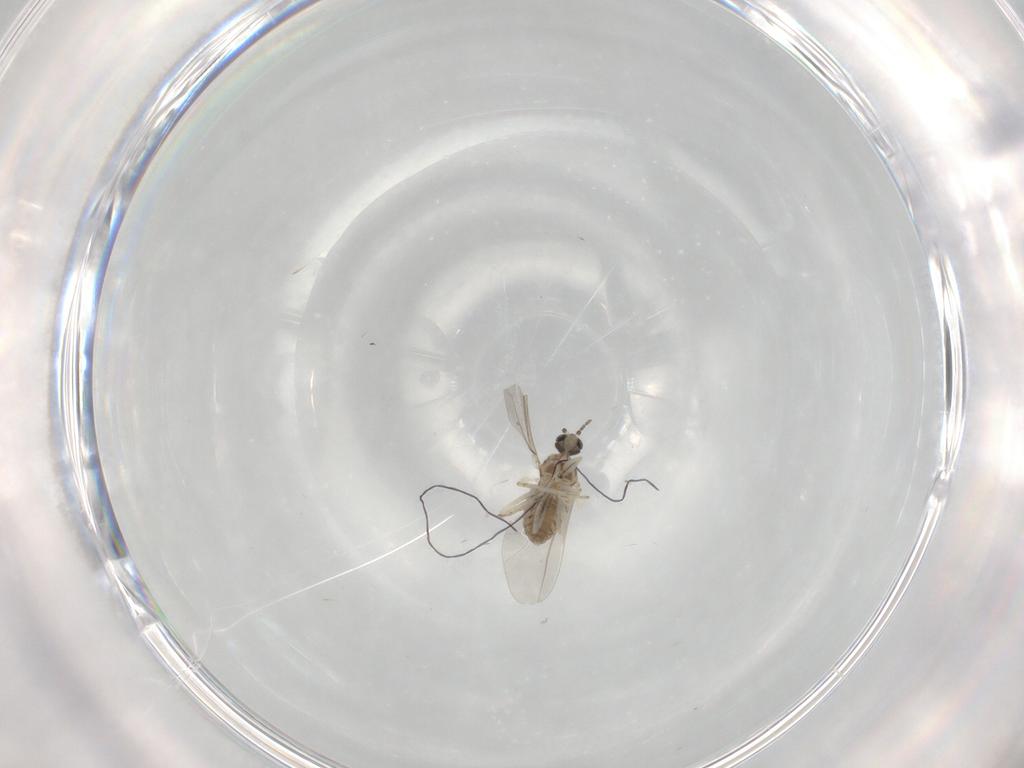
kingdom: Animalia
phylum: Arthropoda
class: Insecta
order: Diptera
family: Cecidomyiidae
